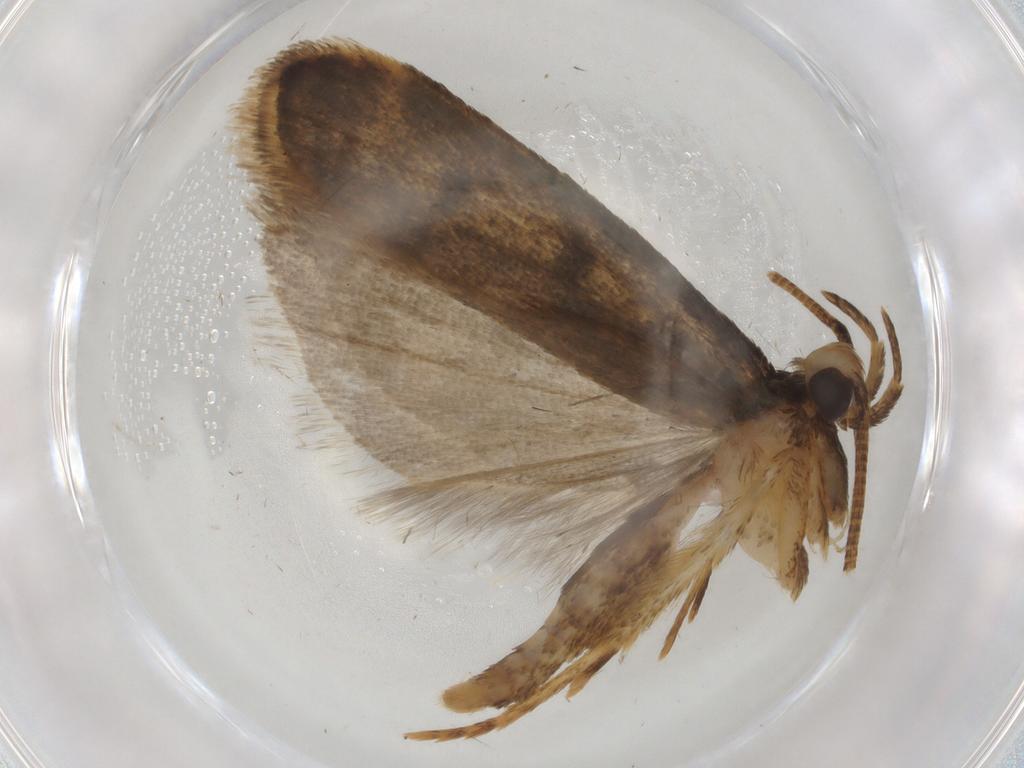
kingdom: Animalia
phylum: Arthropoda
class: Insecta
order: Lepidoptera
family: Autostichidae
